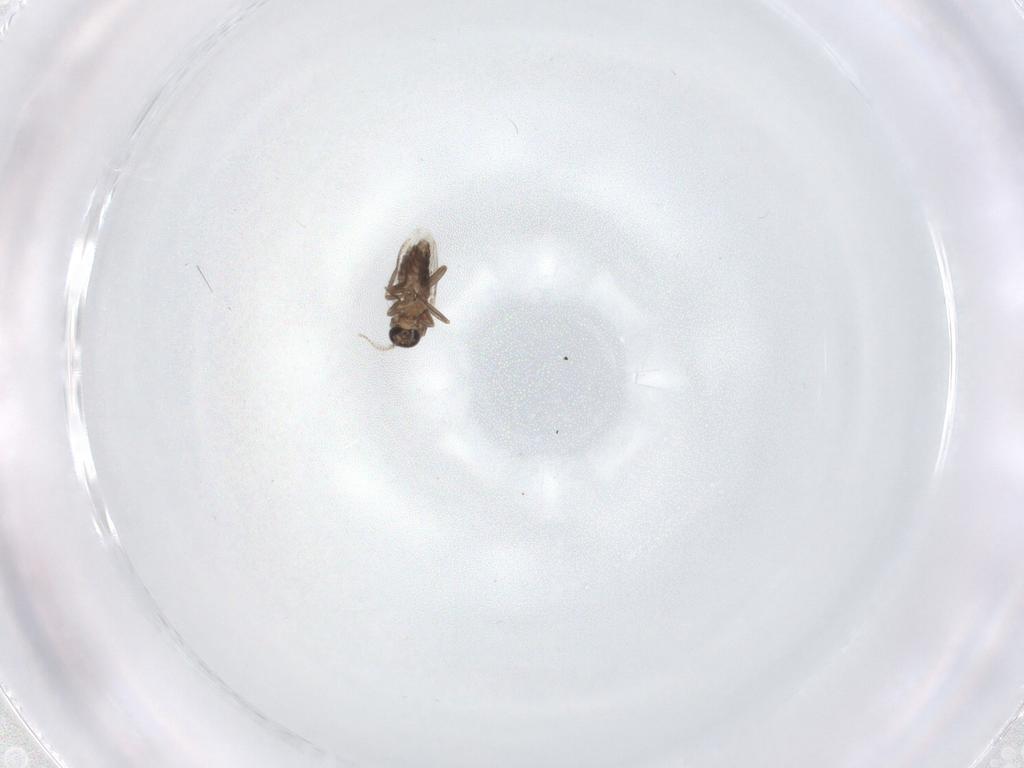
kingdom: Animalia
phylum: Arthropoda
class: Insecta
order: Diptera
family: Ceratopogonidae
